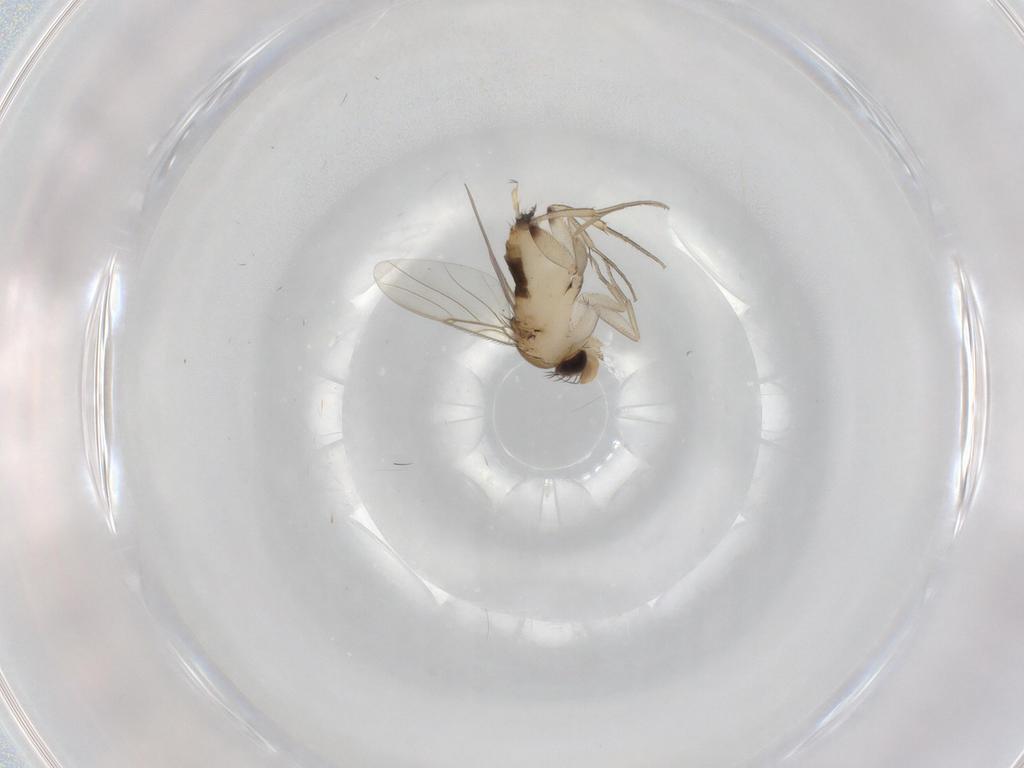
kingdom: Animalia
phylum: Arthropoda
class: Insecta
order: Diptera
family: Phoridae
